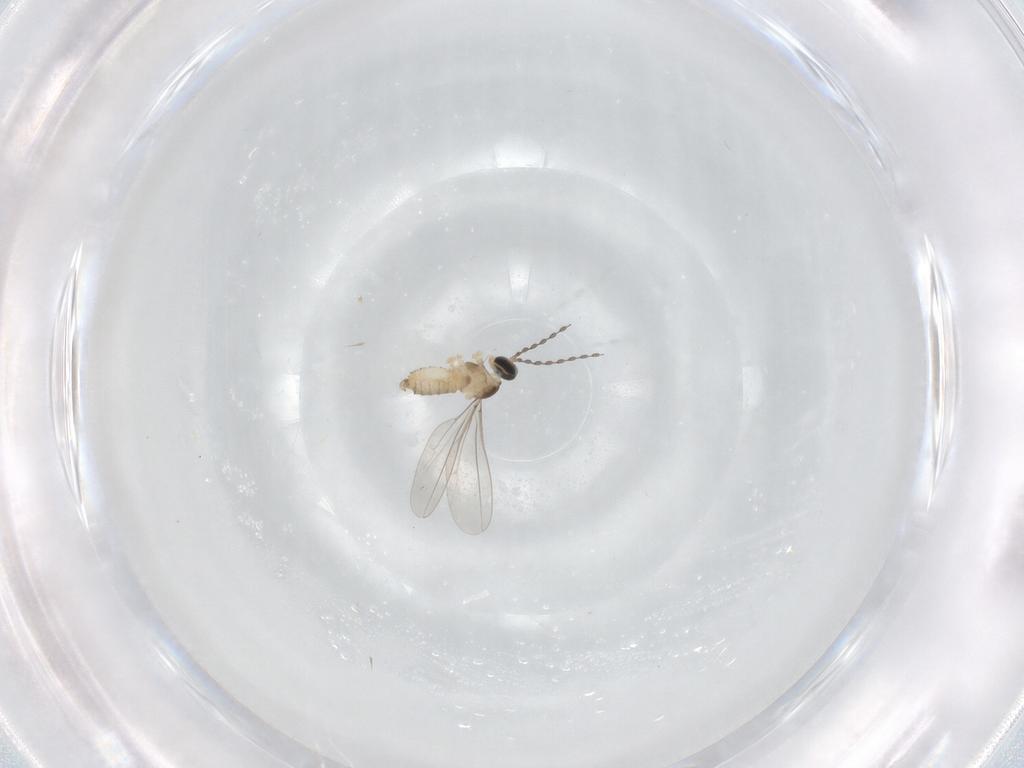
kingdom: Animalia
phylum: Arthropoda
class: Insecta
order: Diptera
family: Cecidomyiidae
